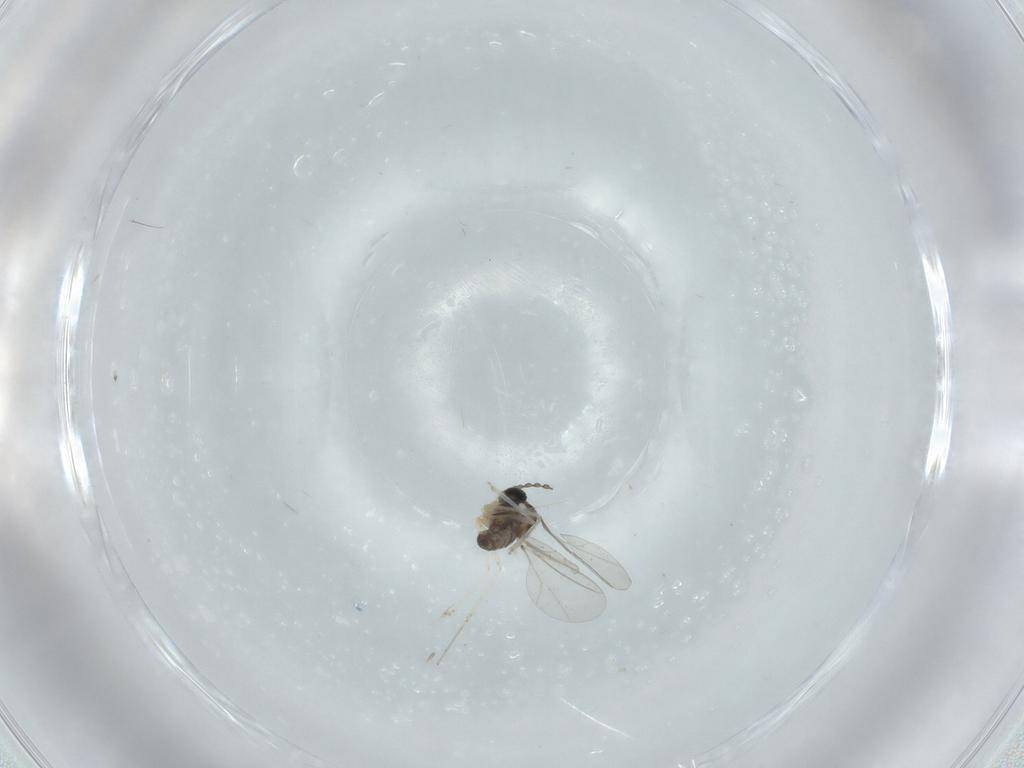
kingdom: Animalia
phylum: Arthropoda
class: Insecta
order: Diptera
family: Cecidomyiidae
